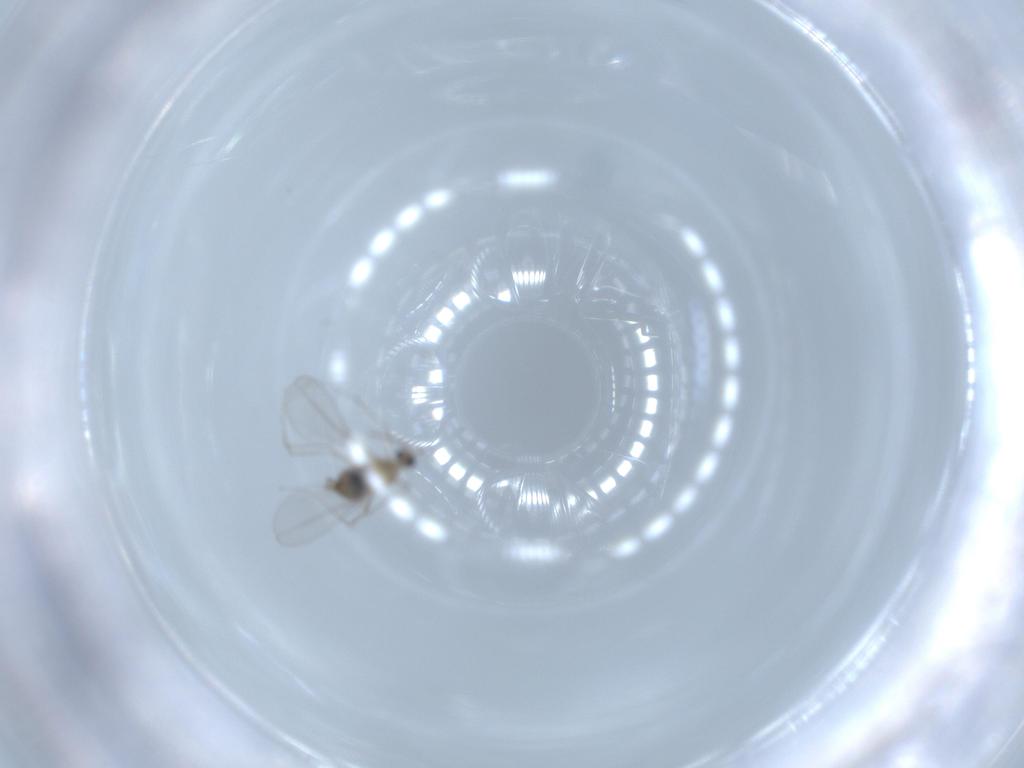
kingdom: Animalia
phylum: Arthropoda
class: Insecta
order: Diptera
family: Cecidomyiidae
